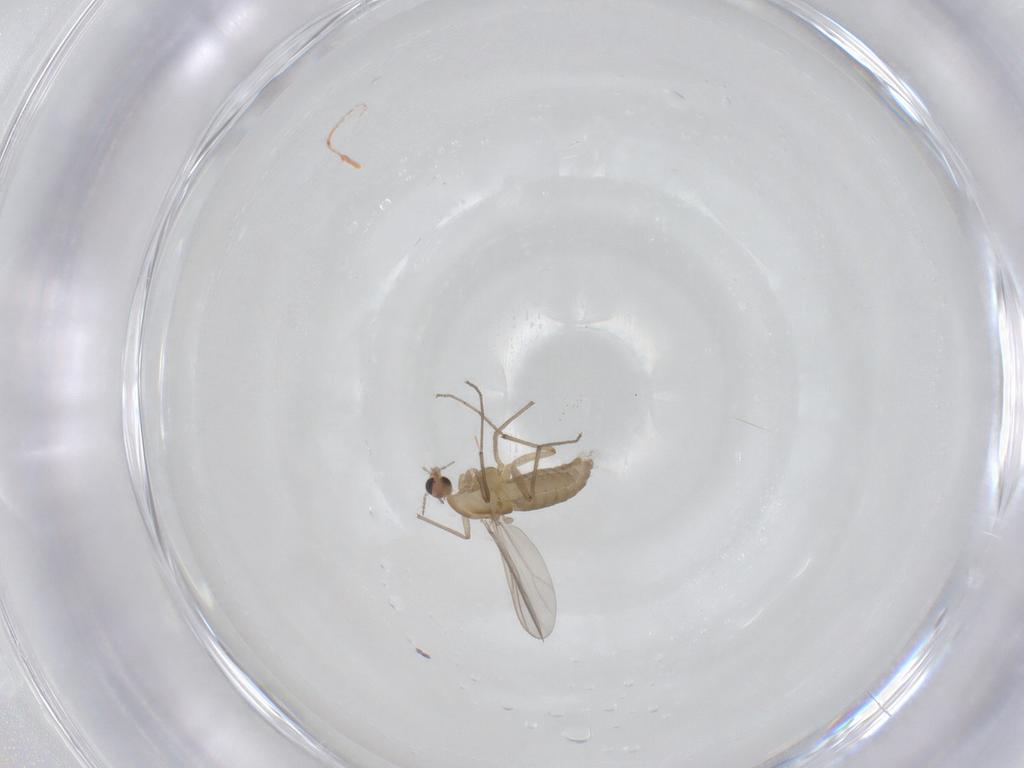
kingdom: Animalia
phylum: Arthropoda
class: Insecta
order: Diptera
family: Chironomidae
